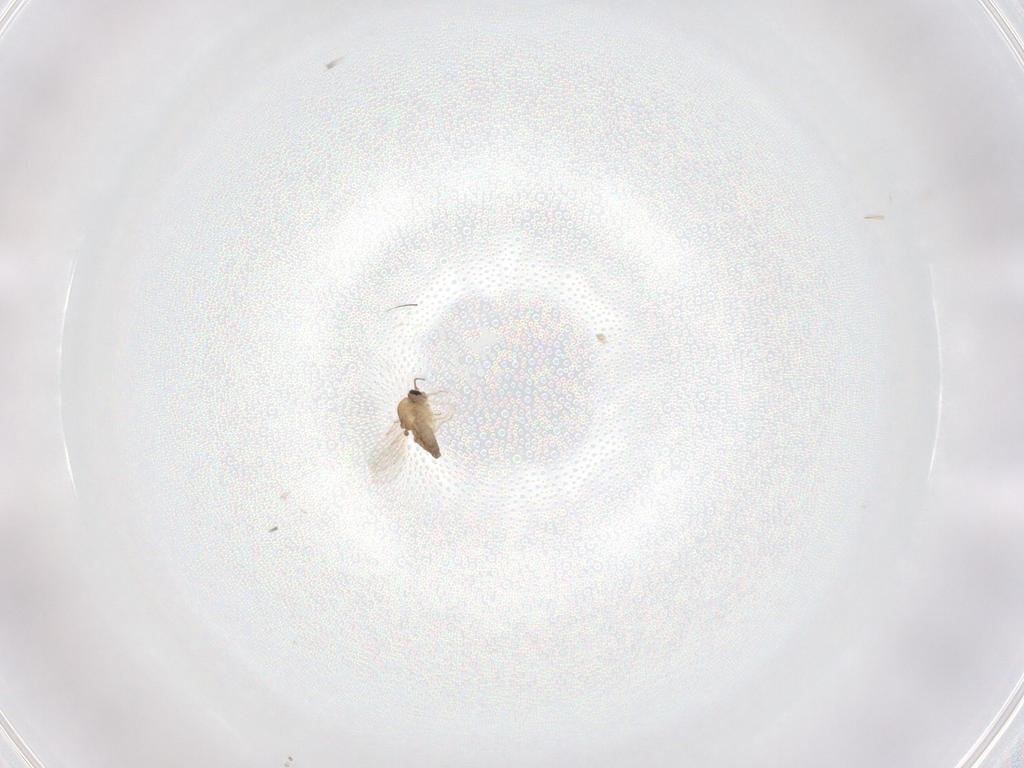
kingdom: Animalia
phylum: Arthropoda
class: Insecta
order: Diptera
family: Ceratopogonidae
